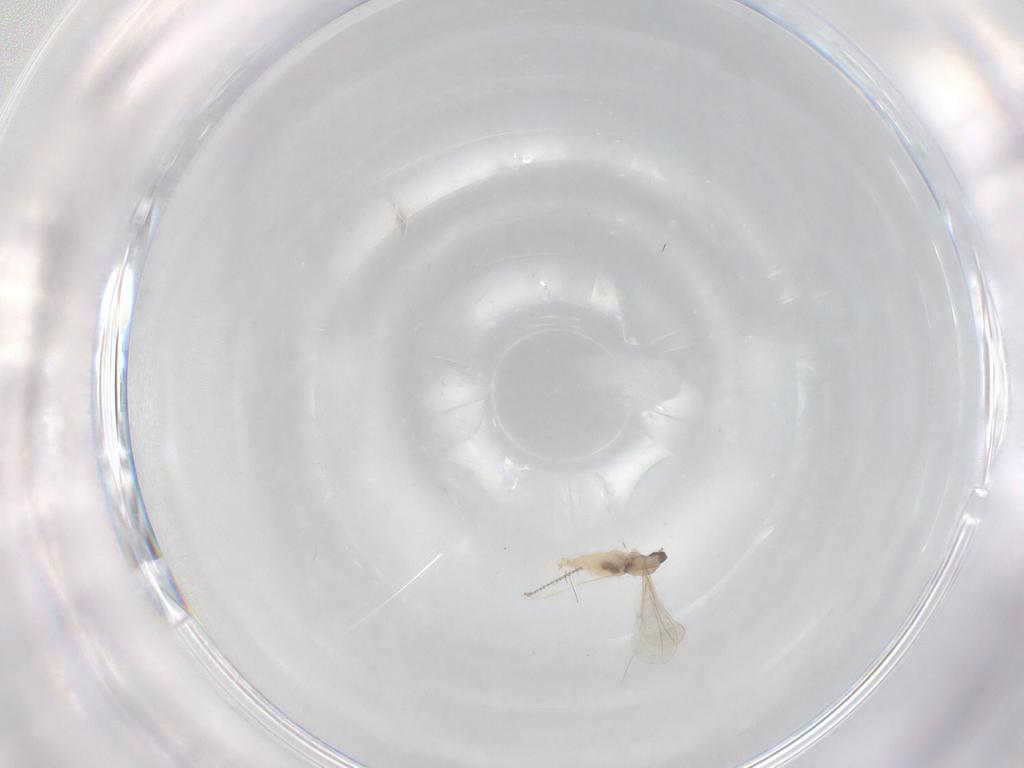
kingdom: Animalia
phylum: Arthropoda
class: Insecta
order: Diptera
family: Cecidomyiidae
